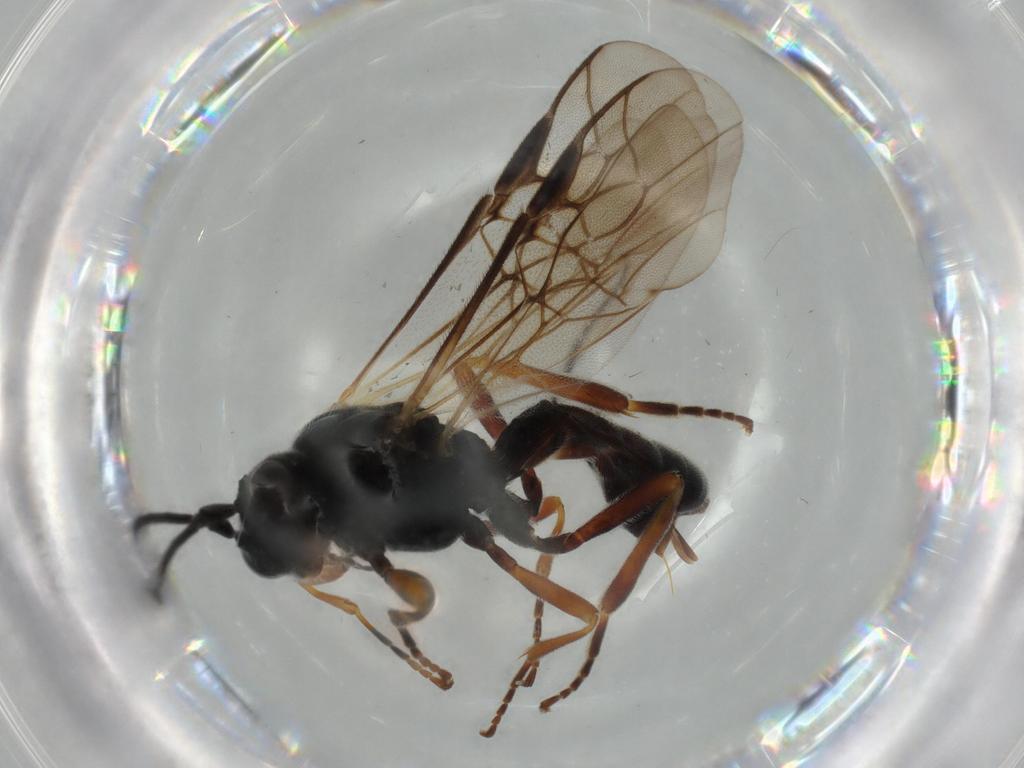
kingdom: Animalia
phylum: Arthropoda
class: Insecta
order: Hymenoptera
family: Braconidae
